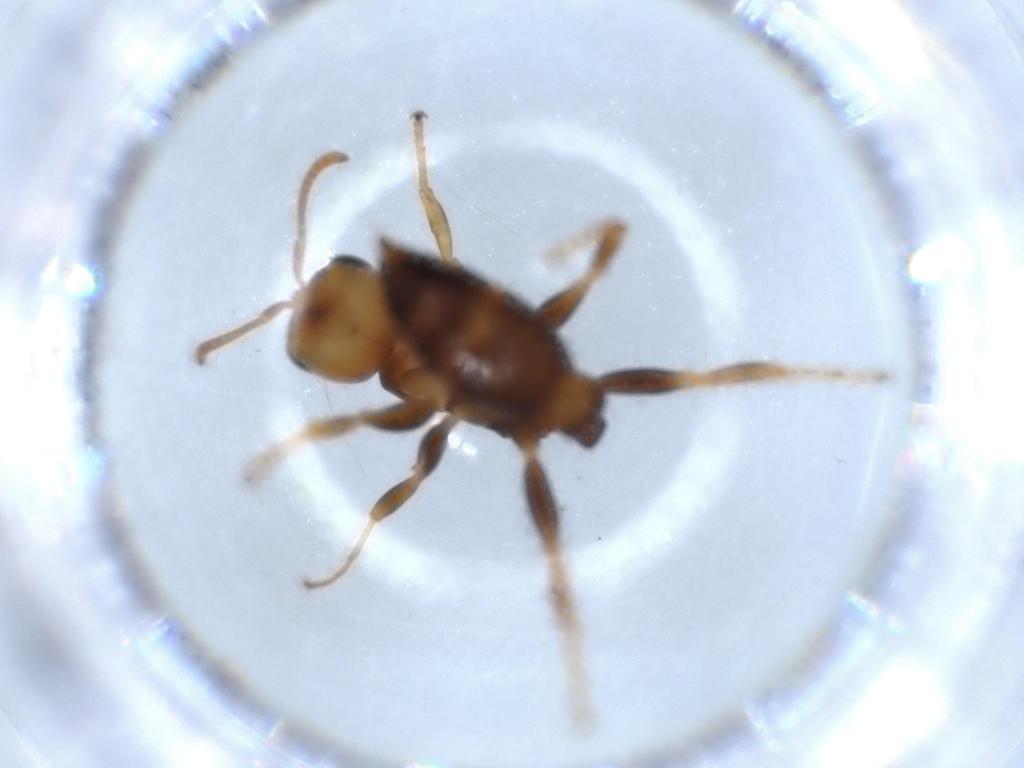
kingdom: Animalia
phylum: Arthropoda
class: Insecta
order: Hymenoptera
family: Formicidae
